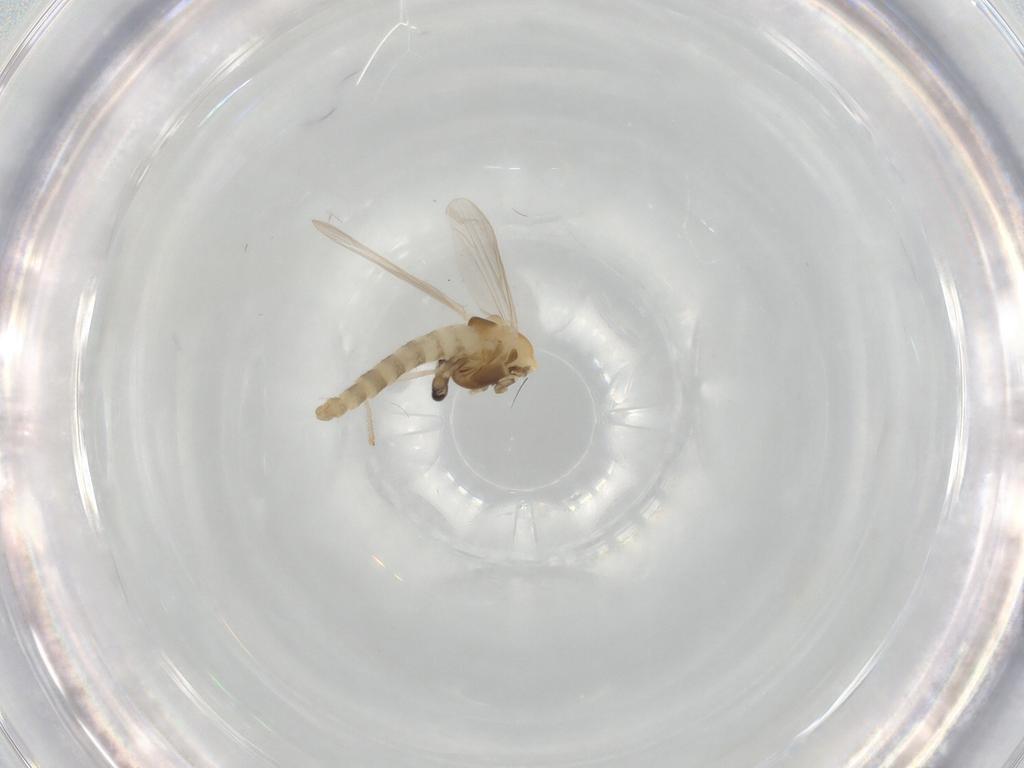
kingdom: Animalia
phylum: Arthropoda
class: Insecta
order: Diptera
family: Chironomidae
